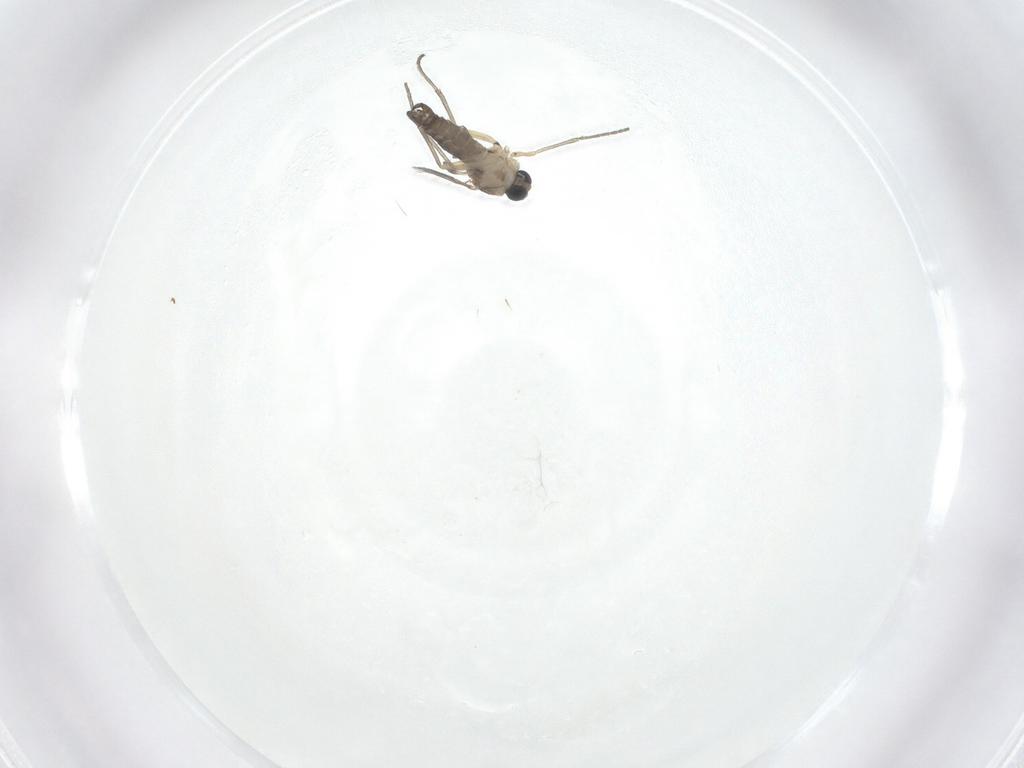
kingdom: Animalia
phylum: Arthropoda
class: Insecta
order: Diptera
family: Sciaridae
